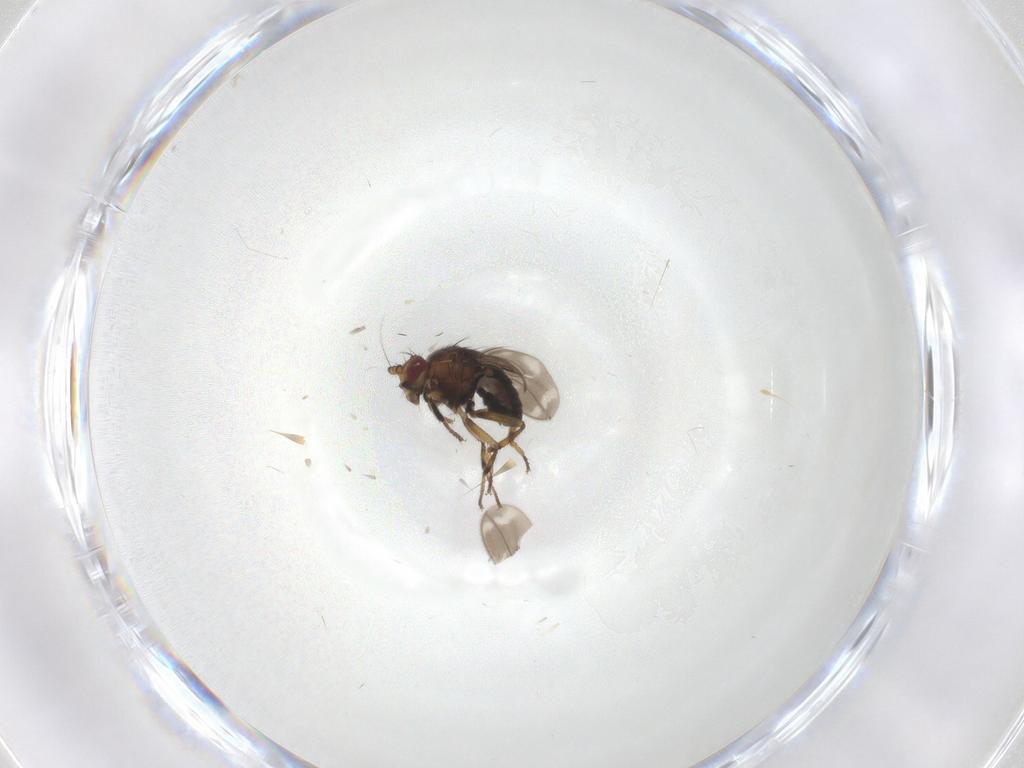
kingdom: Animalia
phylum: Arthropoda
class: Insecta
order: Diptera
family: Sphaeroceridae
